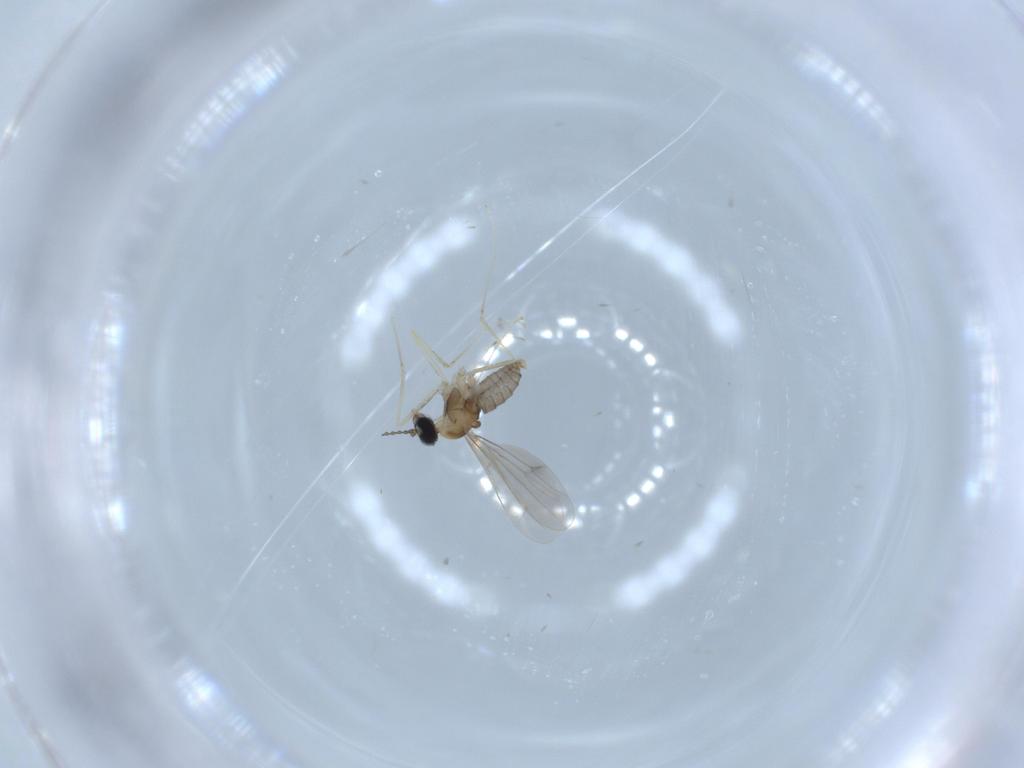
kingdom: Animalia
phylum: Arthropoda
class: Insecta
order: Diptera
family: Cecidomyiidae
